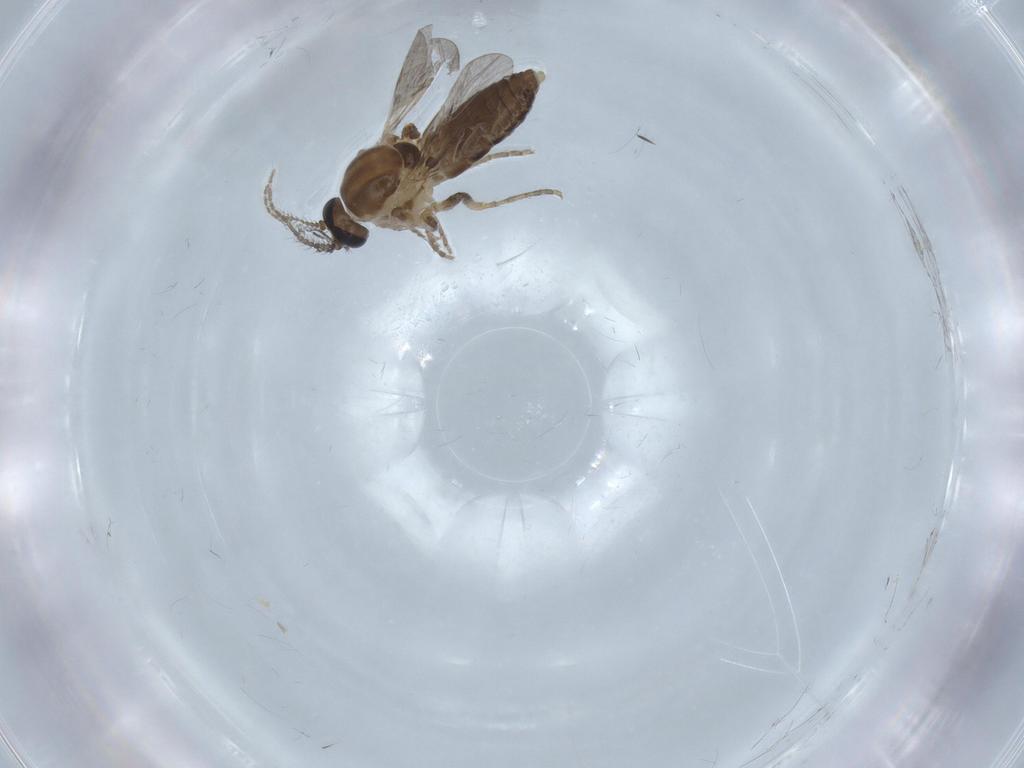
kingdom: Animalia
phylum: Arthropoda
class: Insecta
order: Diptera
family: Ceratopogonidae
